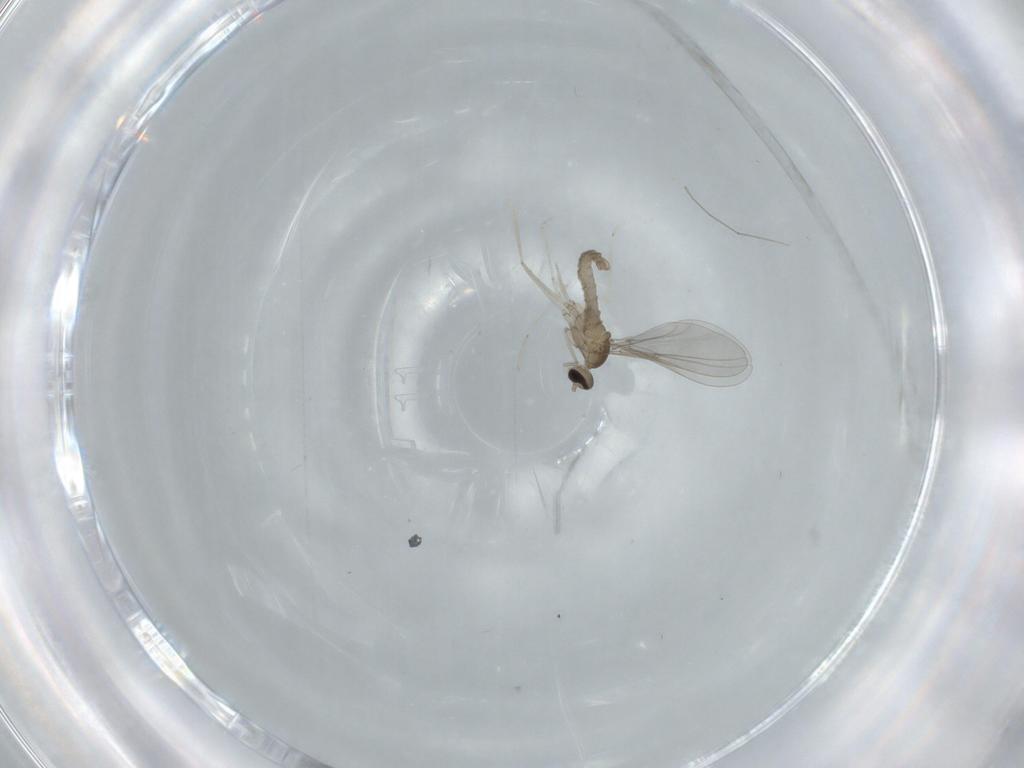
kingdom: Animalia
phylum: Arthropoda
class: Insecta
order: Diptera
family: Cecidomyiidae
